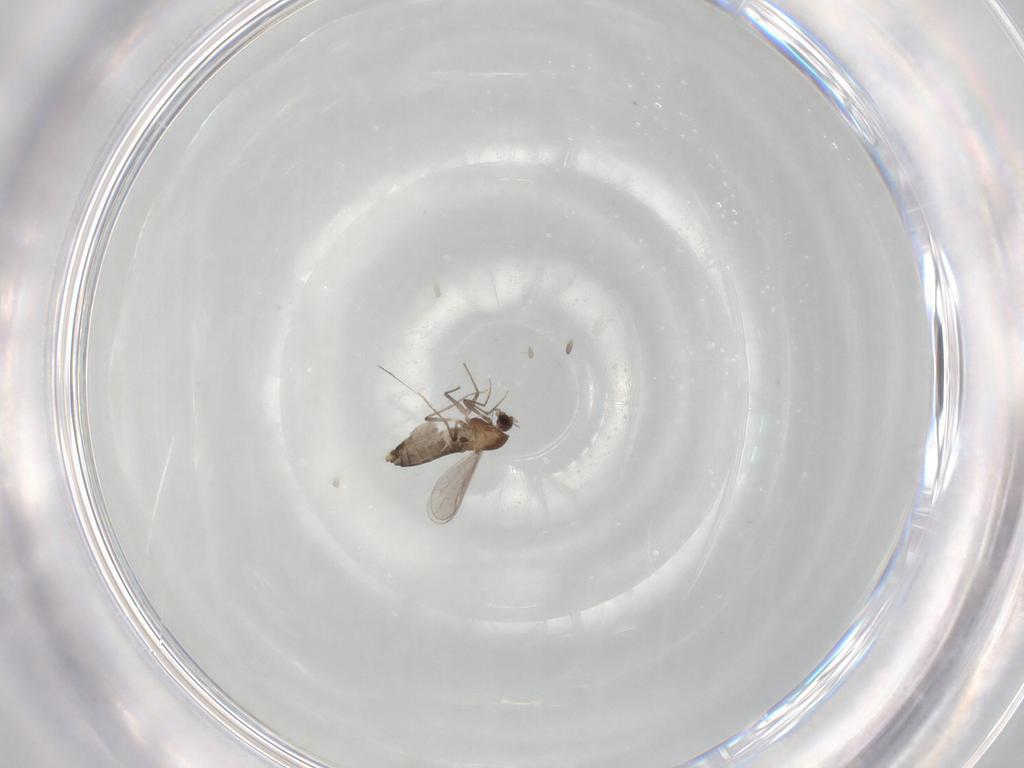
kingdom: Animalia
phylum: Arthropoda
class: Insecta
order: Diptera
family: Chironomidae
